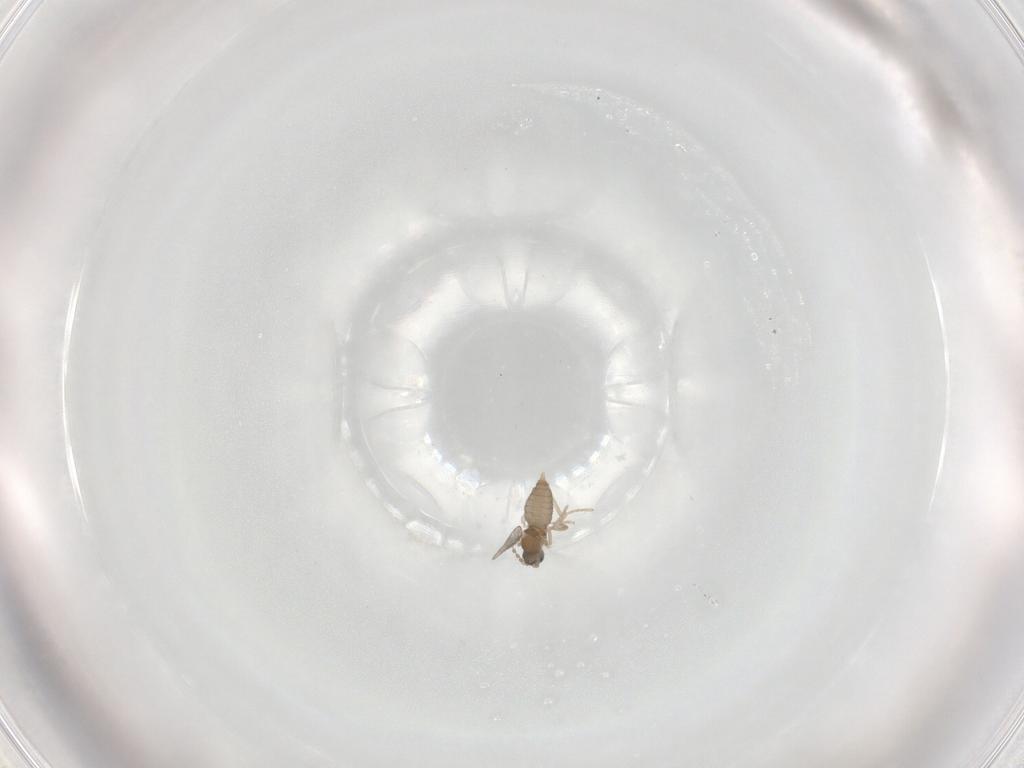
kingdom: Animalia
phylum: Arthropoda
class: Insecta
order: Diptera
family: Cecidomyiidae
